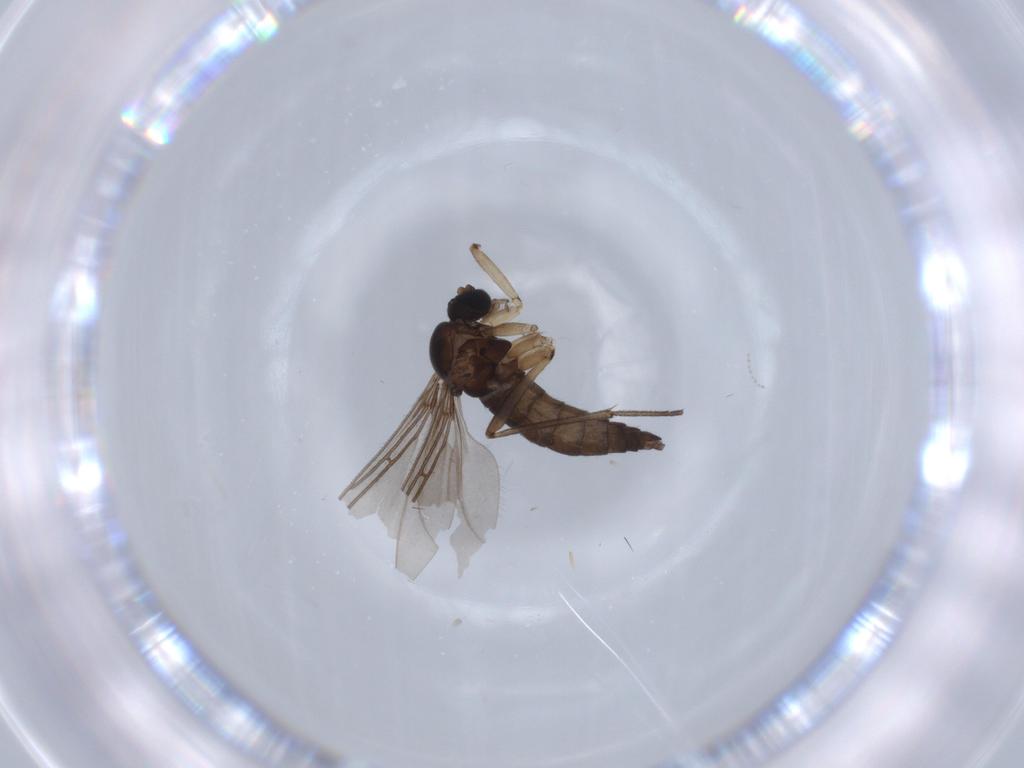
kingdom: Animalia
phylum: Arthropoda
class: Insecta
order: Diptera
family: Sciaridae
